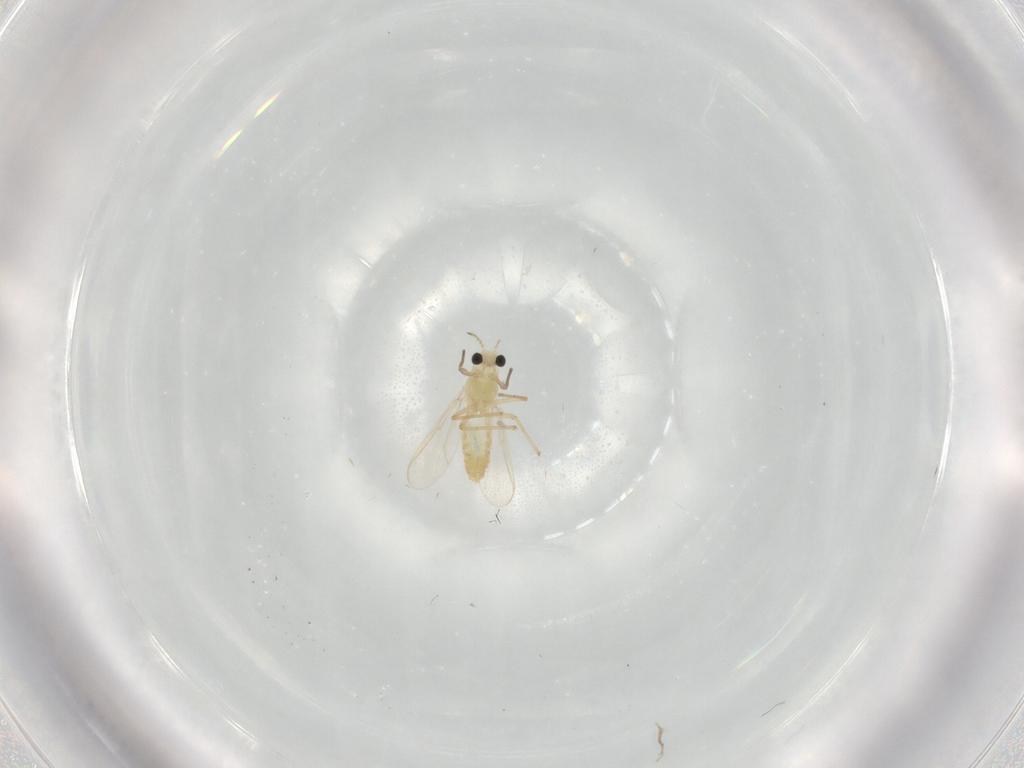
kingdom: Animalia
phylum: Arthropoda
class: Insecta
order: Diptera
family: Chironomidae
